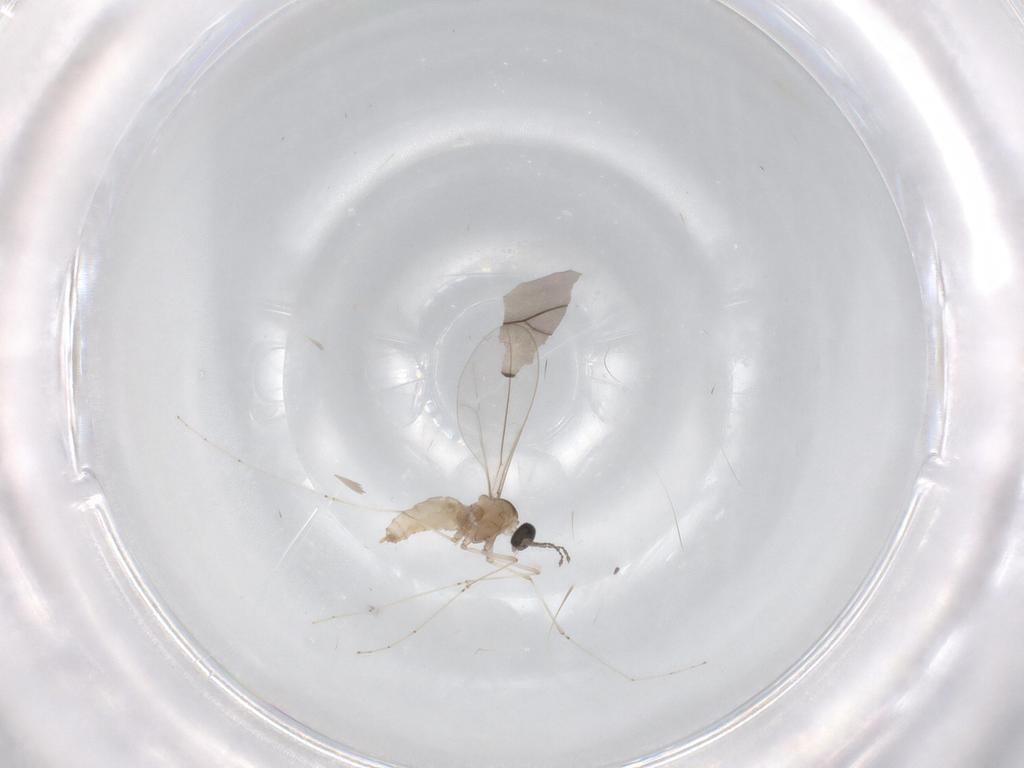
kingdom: Animalia
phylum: Arthropoda
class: Insecta
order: Diptera
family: Cecidomyiidae
